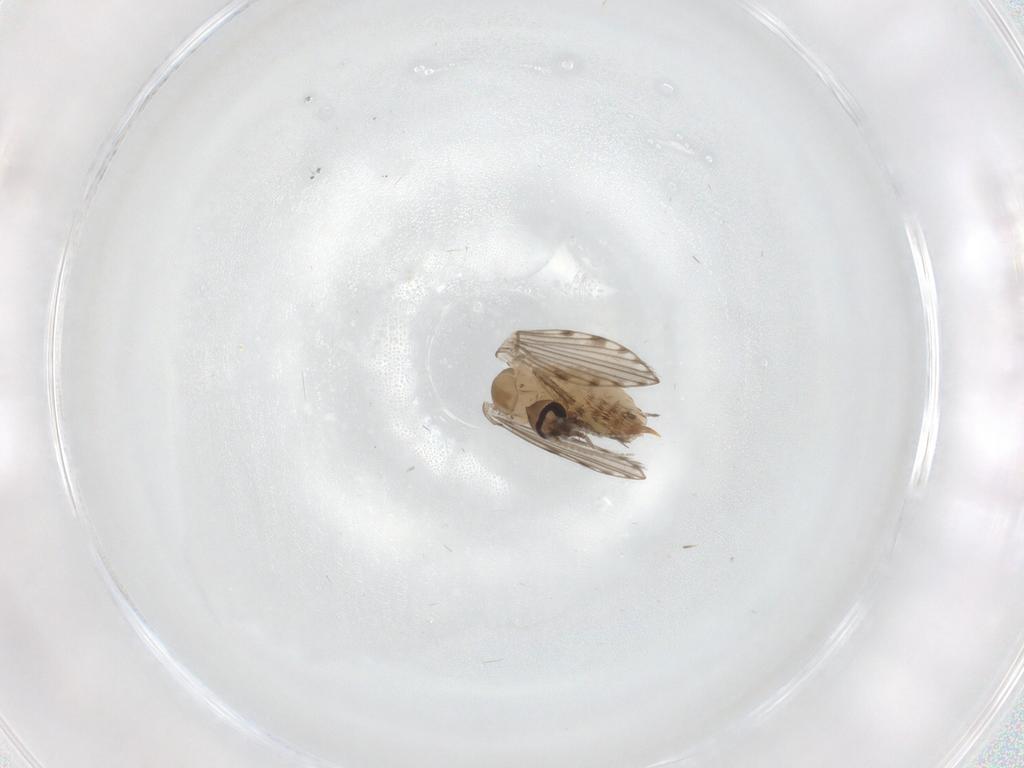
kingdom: Animalia
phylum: Arthropoda
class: Insecta
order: Diptera
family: Psychodidae
